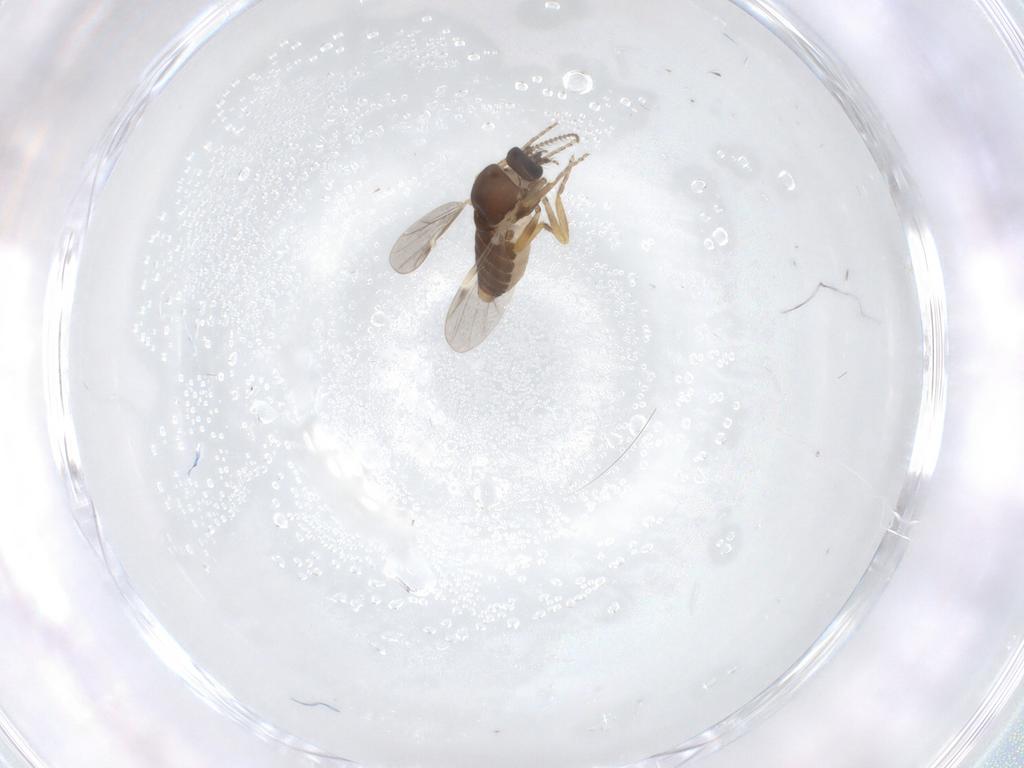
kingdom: Animalia
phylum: Arthropoda
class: Insecta
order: Diptera
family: Ceratopogonidae
